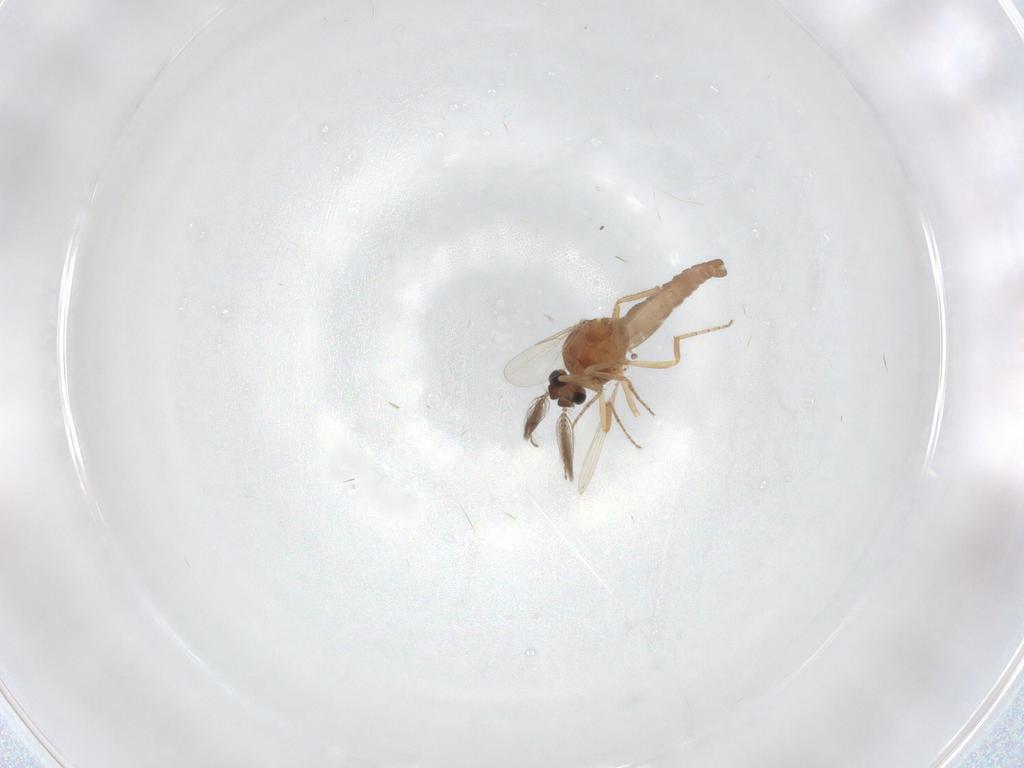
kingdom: Animalia
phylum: Arthropoda
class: Insecta
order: Diptera
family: Ceratopogonidae
